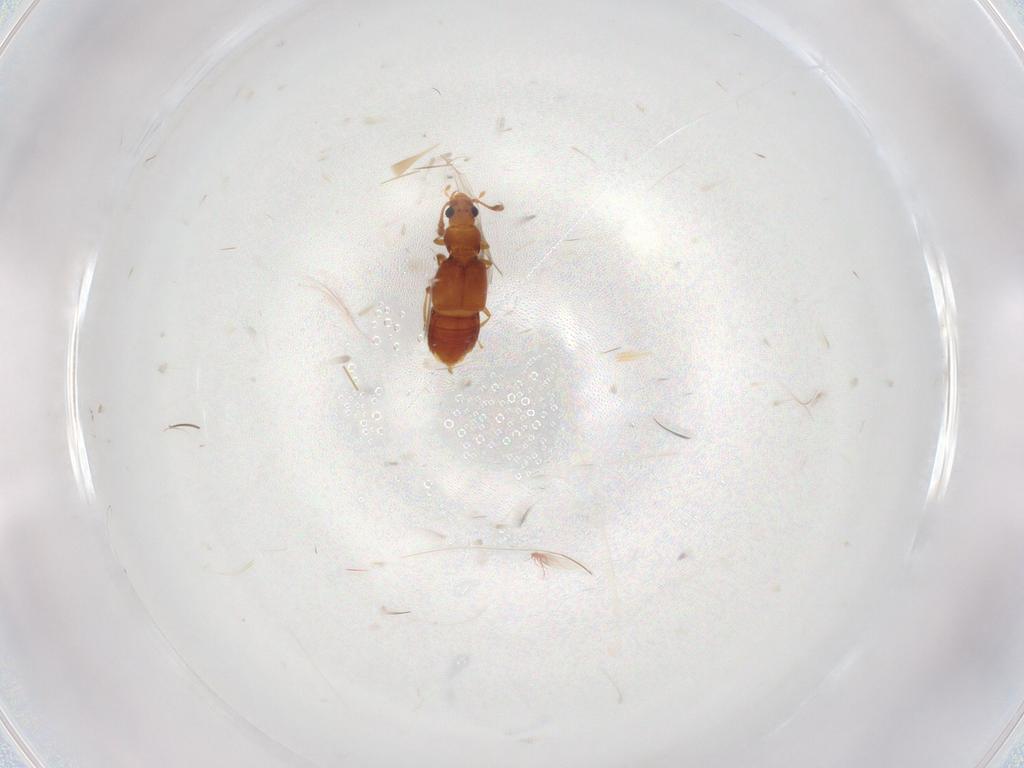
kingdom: Animalia
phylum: Arthropoda
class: Insecta
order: Coleoptera
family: Staphylinidae
